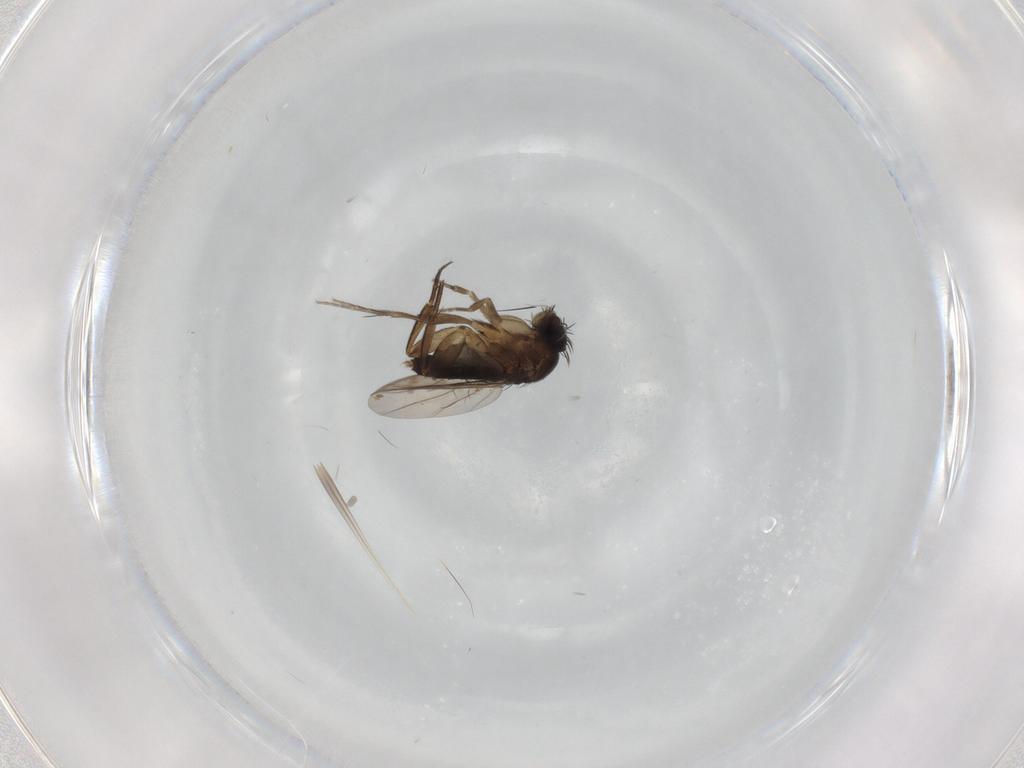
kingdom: Animalia
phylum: Arthropoda
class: Insecta
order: Diptera
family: Phoridae
